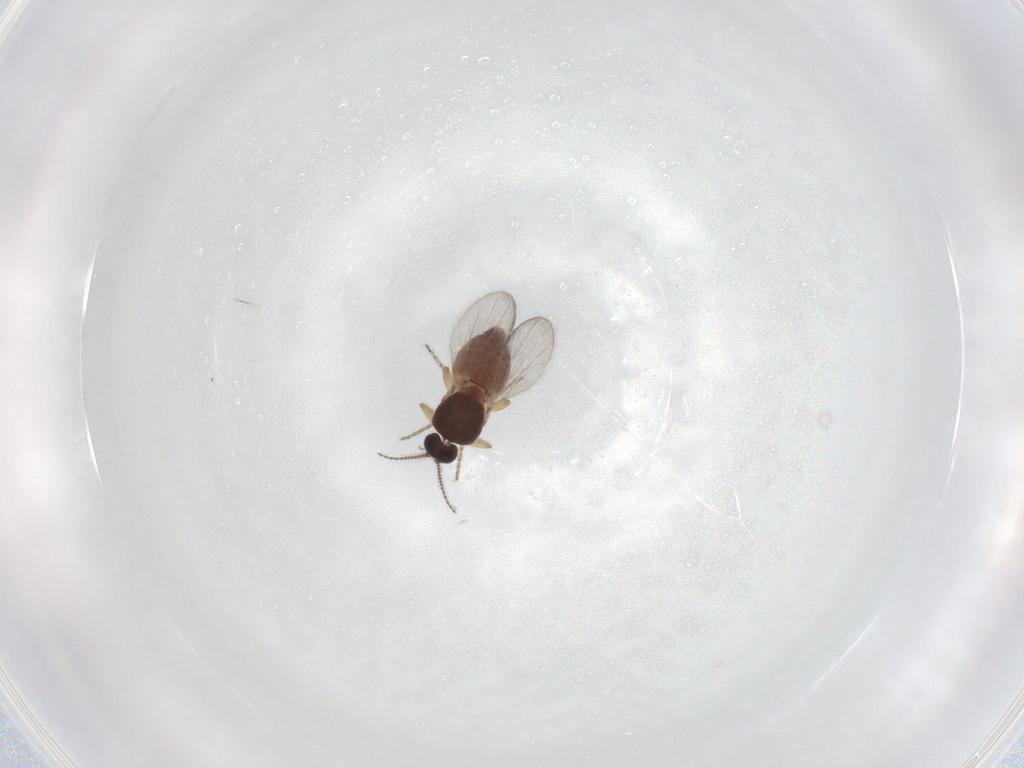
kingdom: Animalia
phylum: Arthropoda
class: Insecta
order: Diptera
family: Ceratopogonidae
